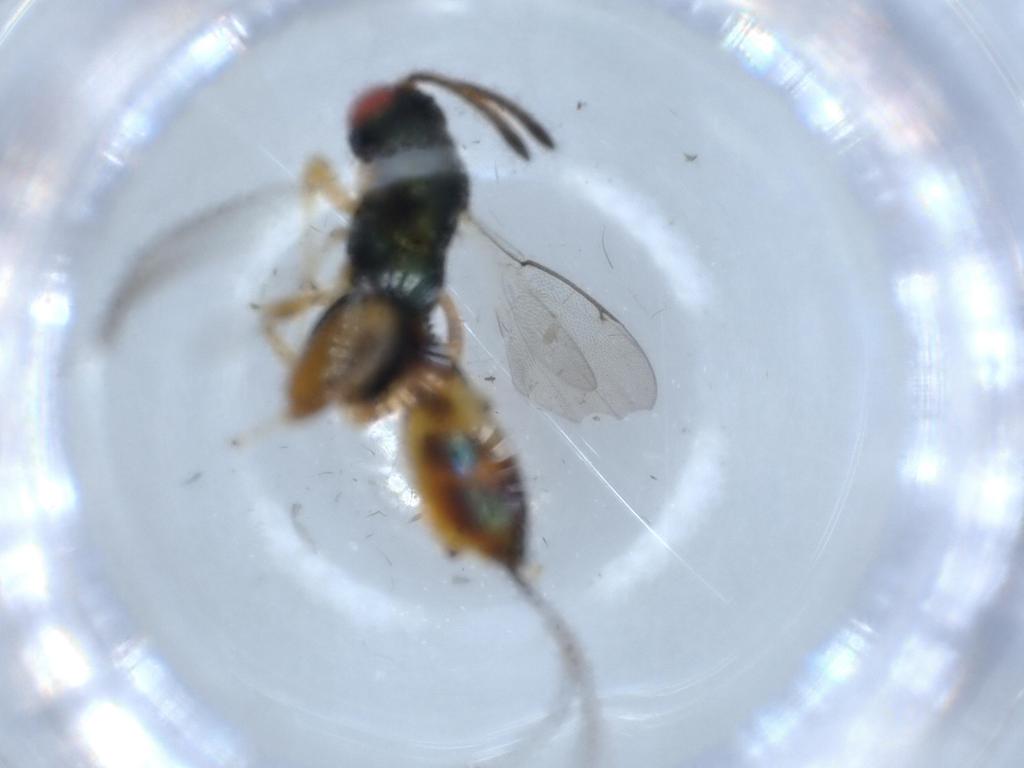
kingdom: Animalia
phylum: Arthropoda
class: Insecta
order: Hymenoptera
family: Torymidae
